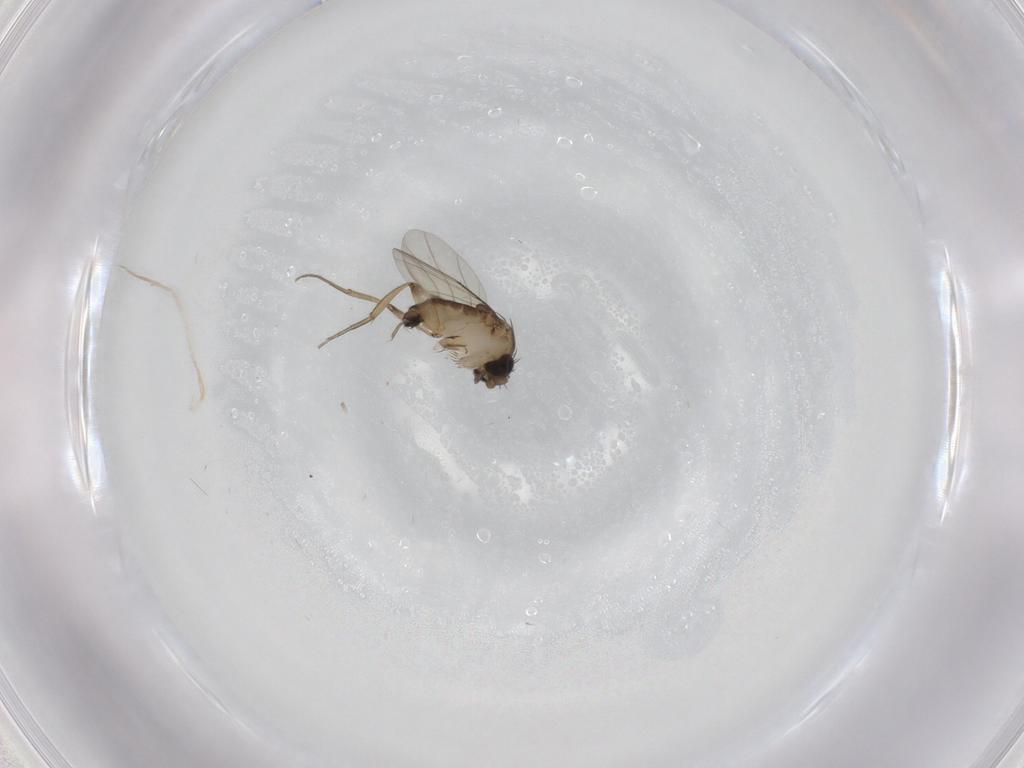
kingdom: Animalia
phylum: Arthropoda
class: Insecta
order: Diptera
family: Phoridae
